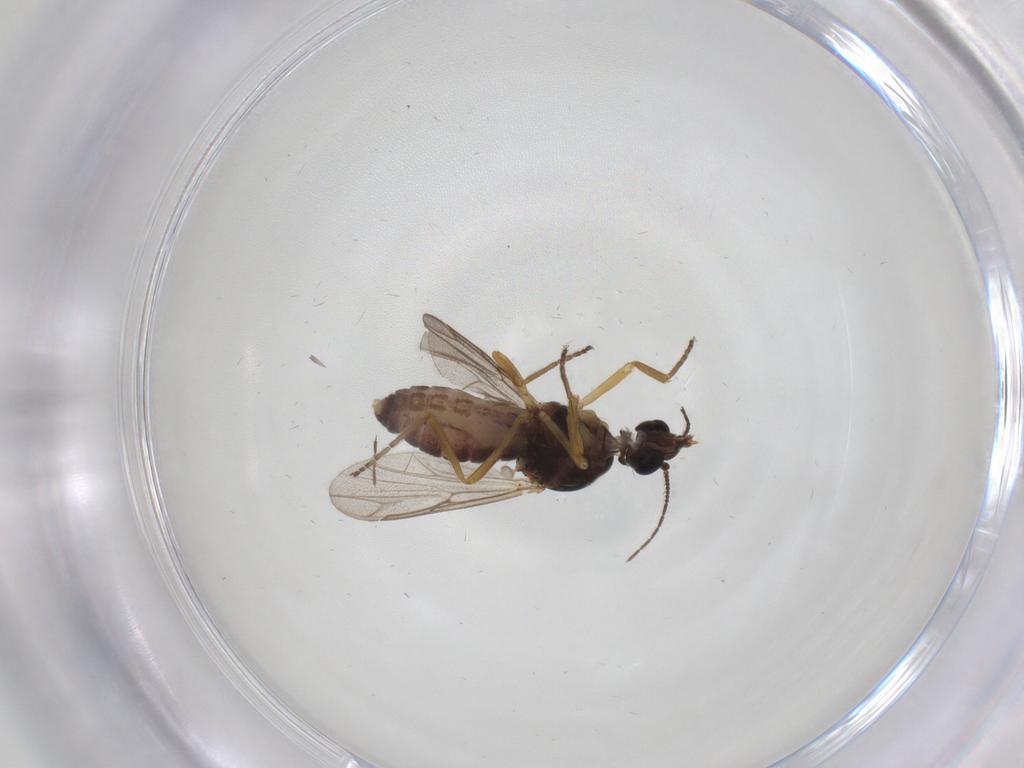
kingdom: Animalia
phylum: Arthropoda
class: Insecta
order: Diptera
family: Ceratopogonidae
